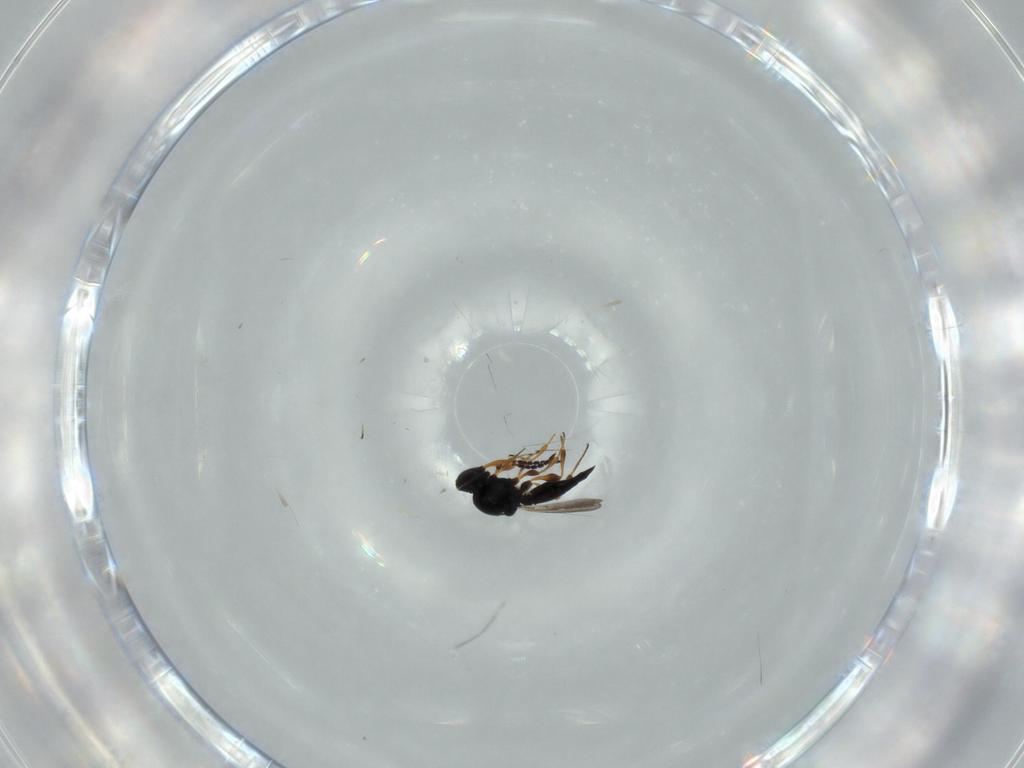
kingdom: Animalia
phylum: Arthropoda
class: Insecta
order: Hymenoptera
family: Platygastridae
